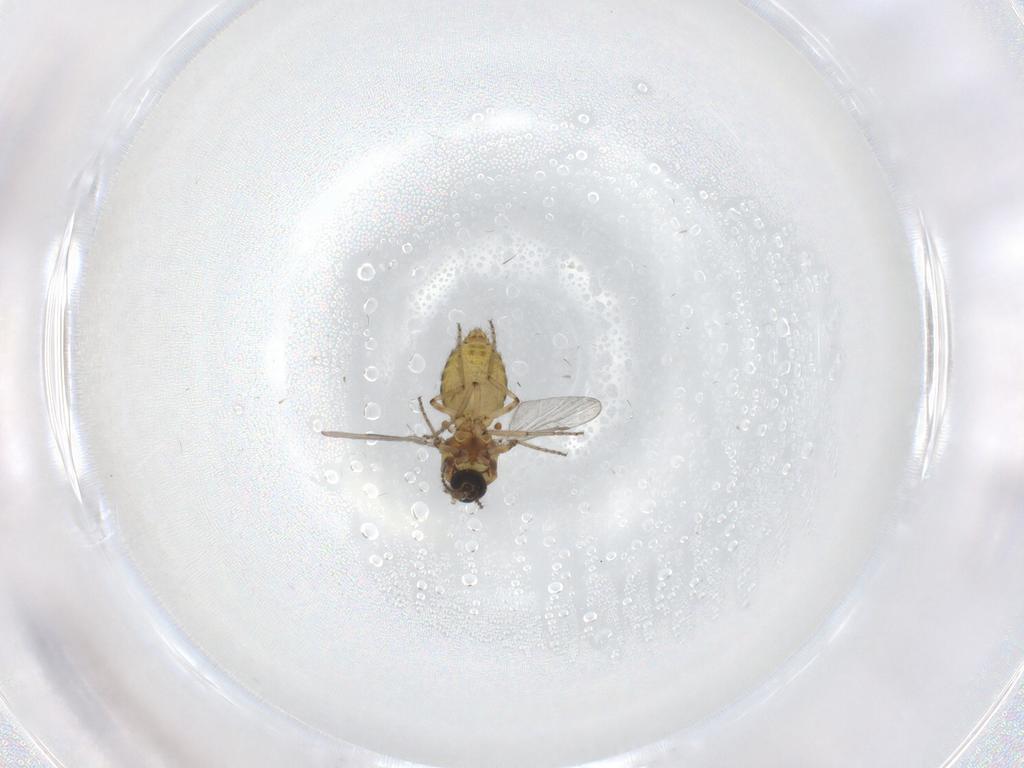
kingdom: Animalia
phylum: Arthropoda
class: Insecta
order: Diptera
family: Ceratopogonidae
